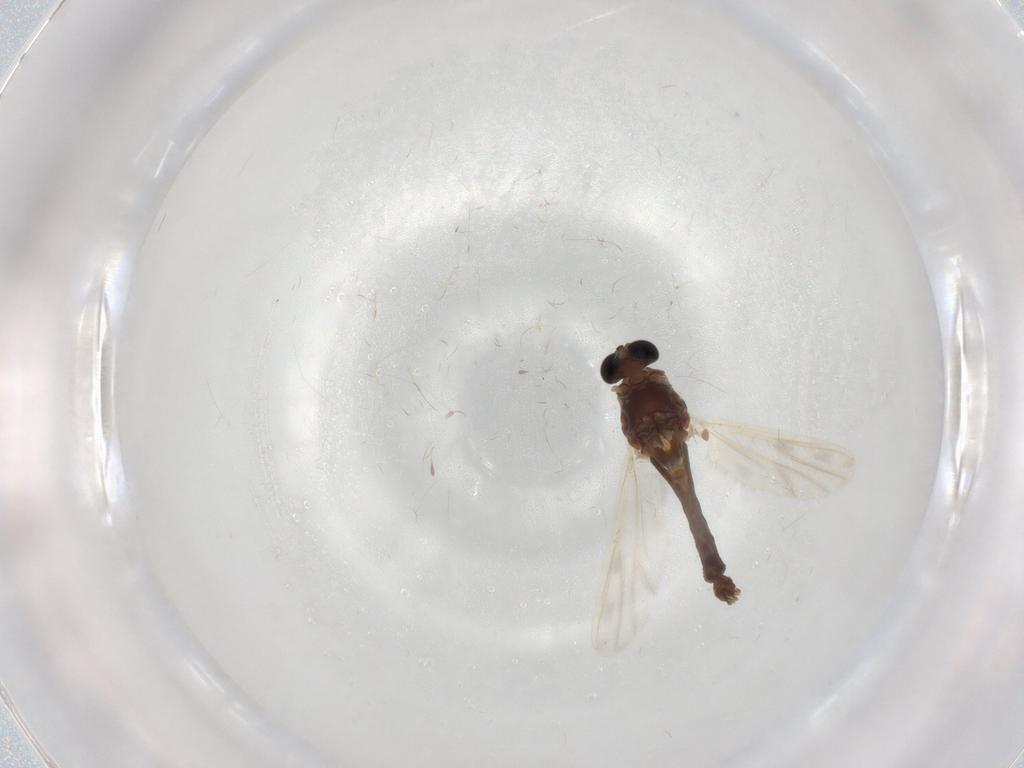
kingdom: Animalia
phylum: Arthropoda
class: Insecta
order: Diptera
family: Chironomidae
